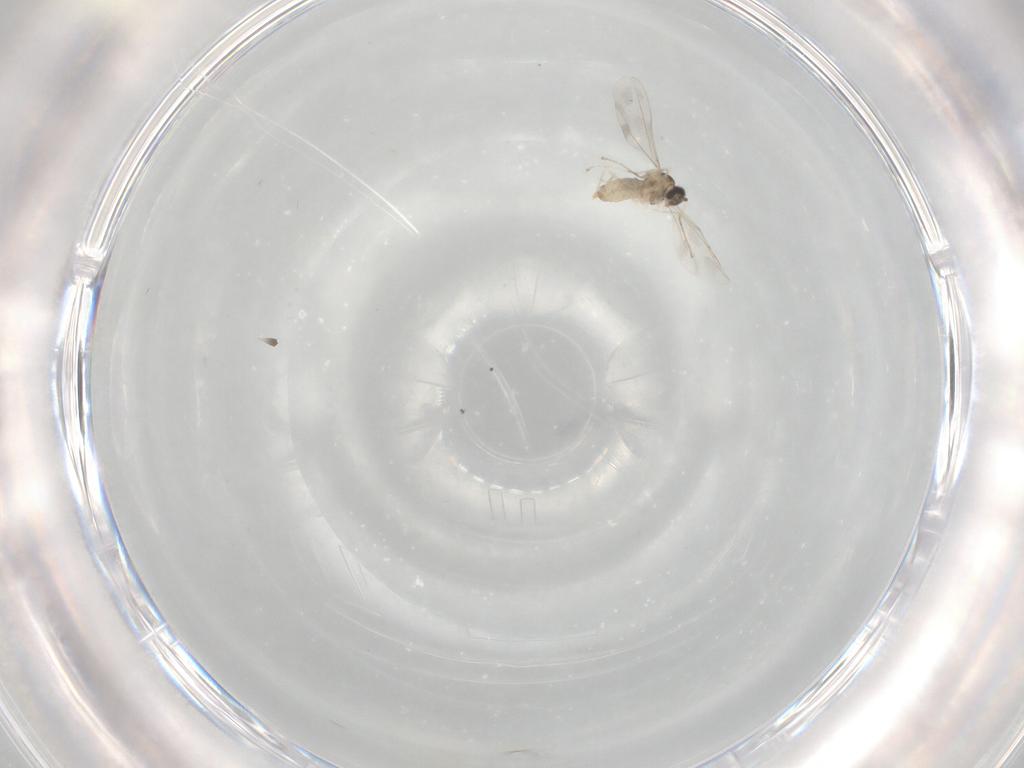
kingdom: Animalia
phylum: Arthropoda
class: Insecta
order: Diptera
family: Cecidomyiidae
